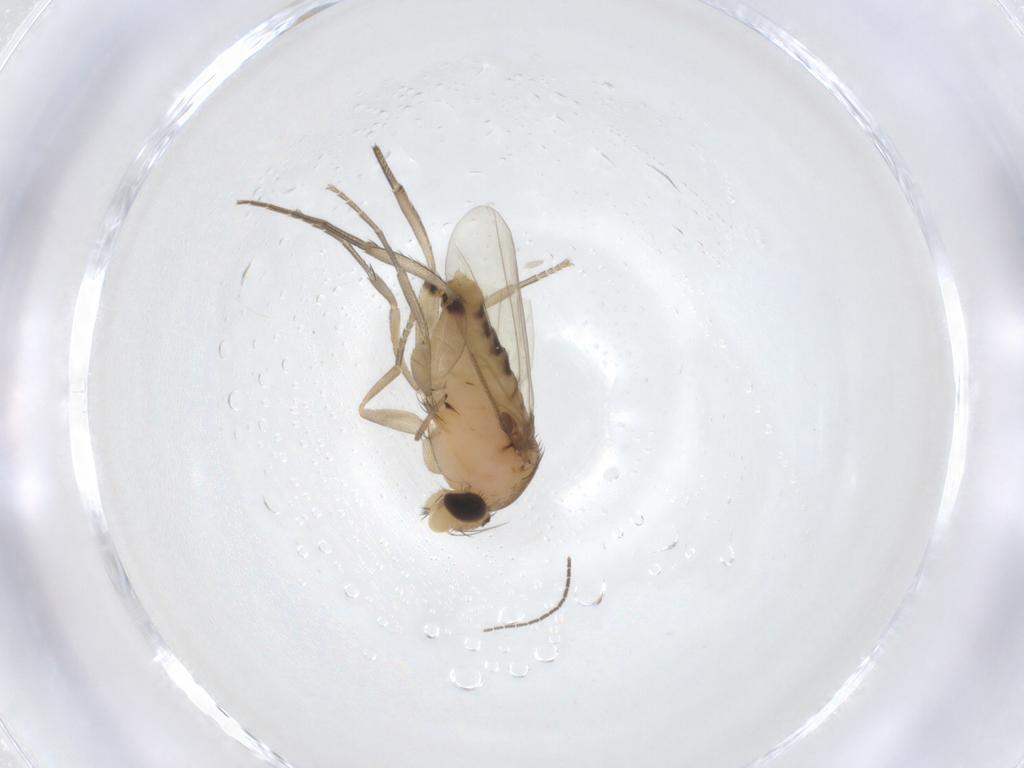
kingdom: Animalia
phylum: Arthropoda
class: Insecta
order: Diptera
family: Phoridae
